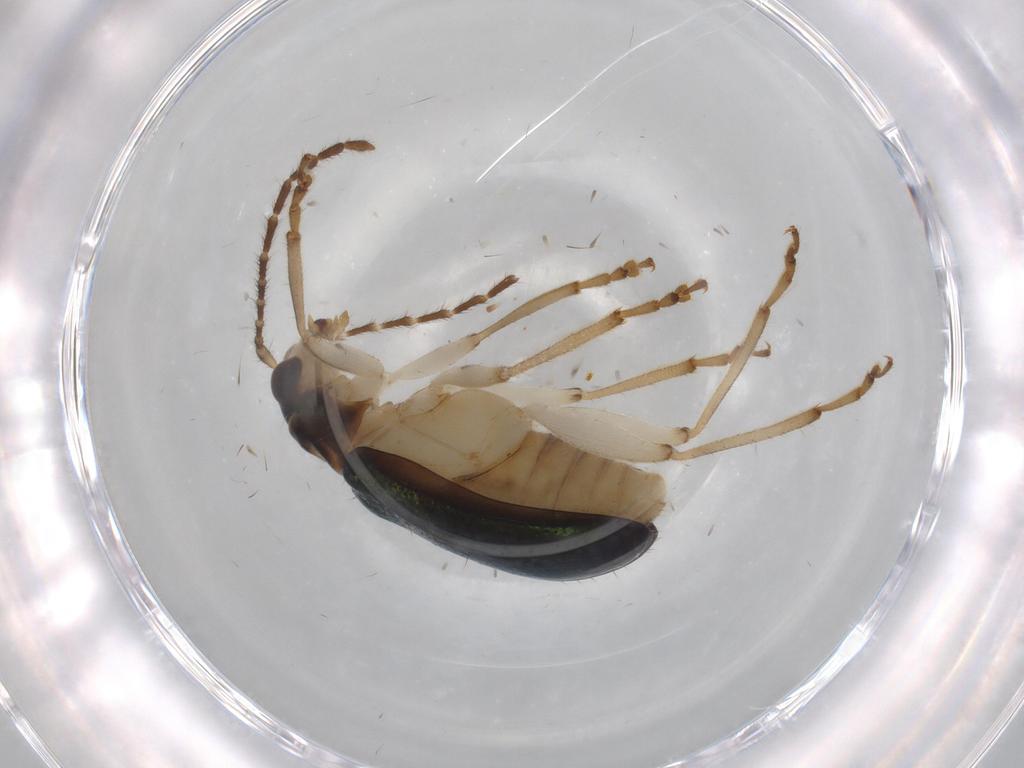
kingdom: Animalia
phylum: Arthropoda
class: Insecta
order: Coleoptera
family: Chrysomelidae
